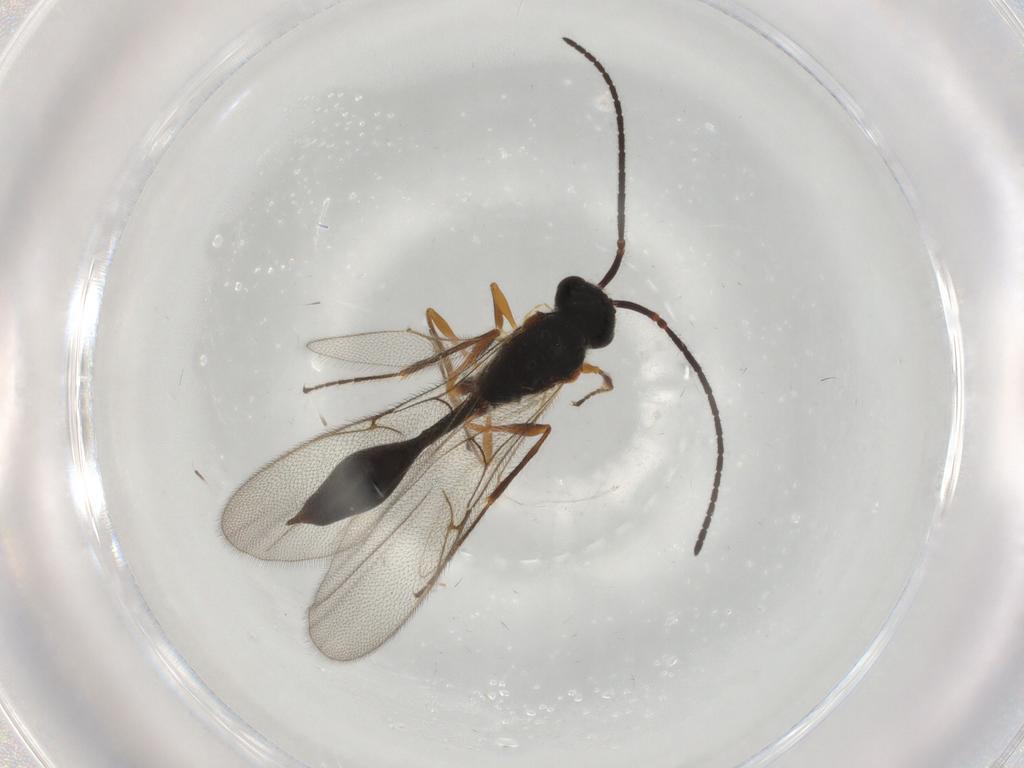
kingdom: Animalia
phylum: Arthropoda
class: Insecta
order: Hymenoptera
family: Diapriidae
